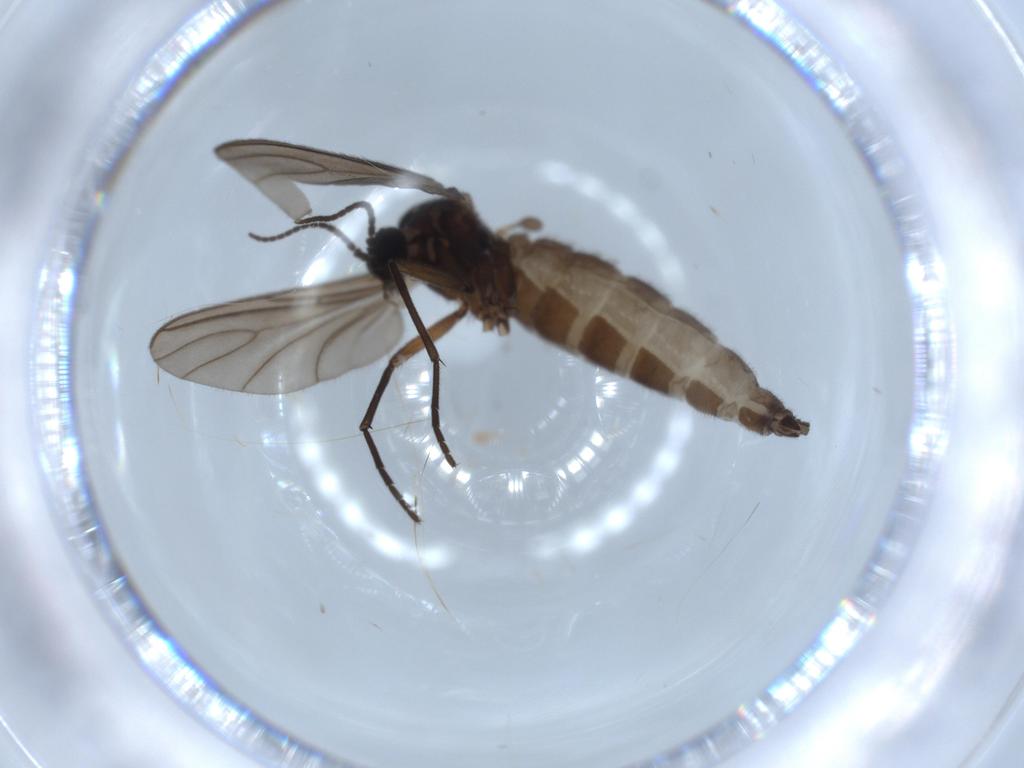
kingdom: Animalia
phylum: Arthropoda
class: Insecta
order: Diptera
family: Sciaridae
